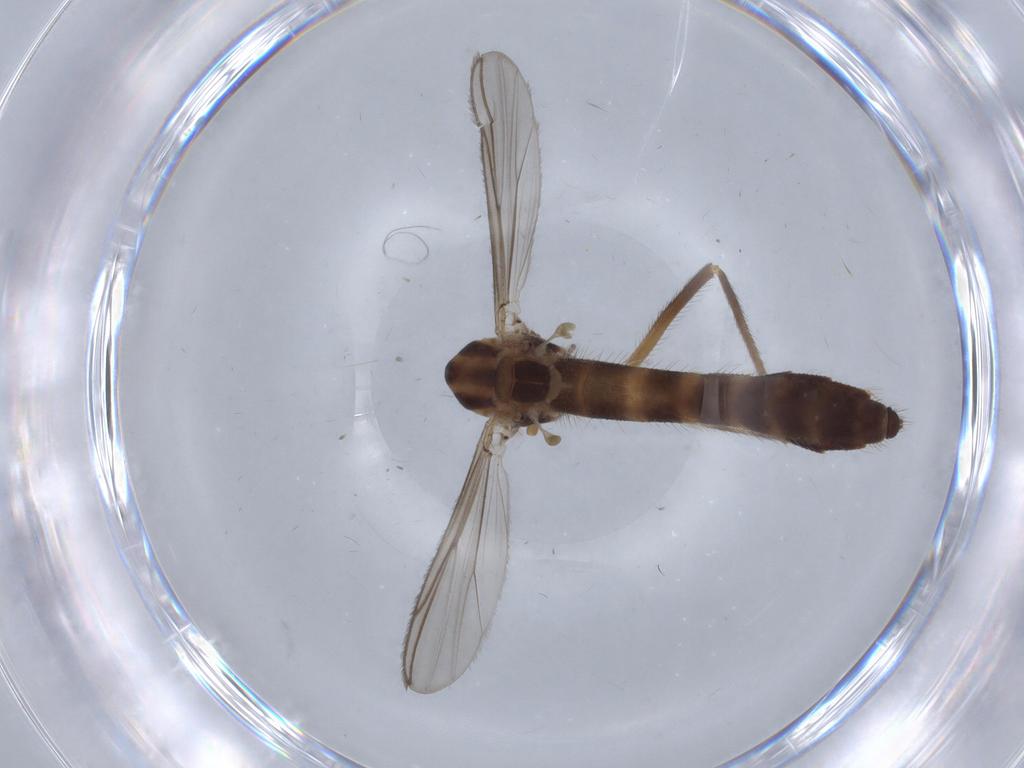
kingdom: Animalia
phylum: Arthropoda
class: Insecta
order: Diptera
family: Chironomidae
